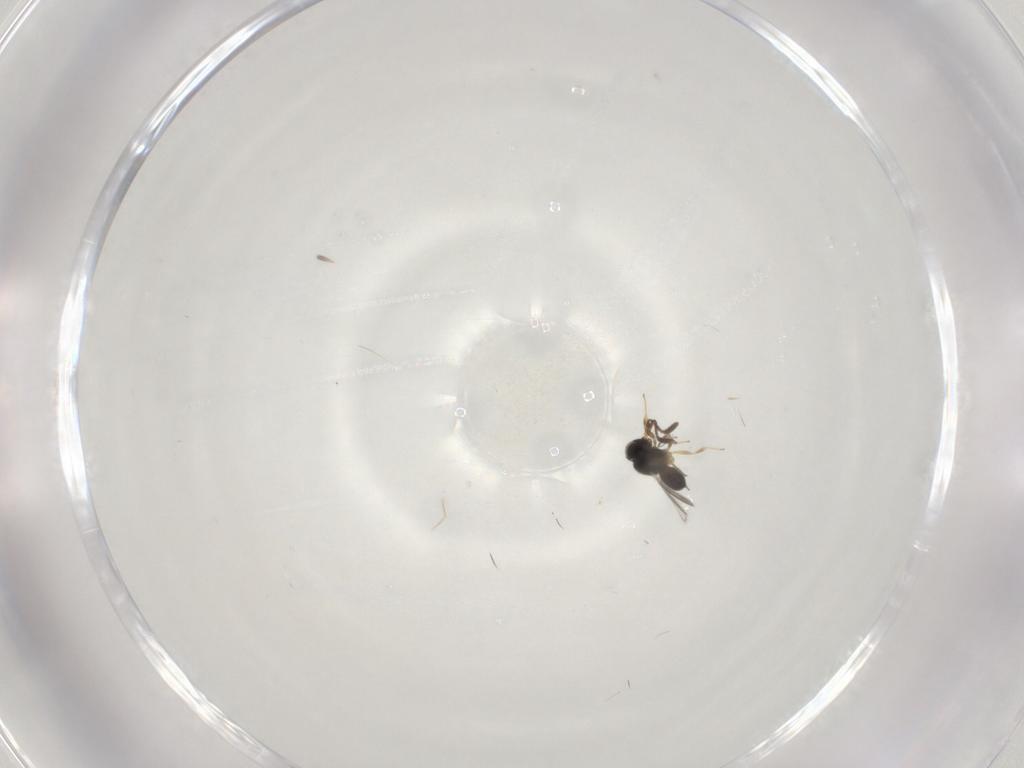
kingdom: Animalia
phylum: Arthropoda
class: Insecta
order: Hymenoptera
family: Scelionidae
